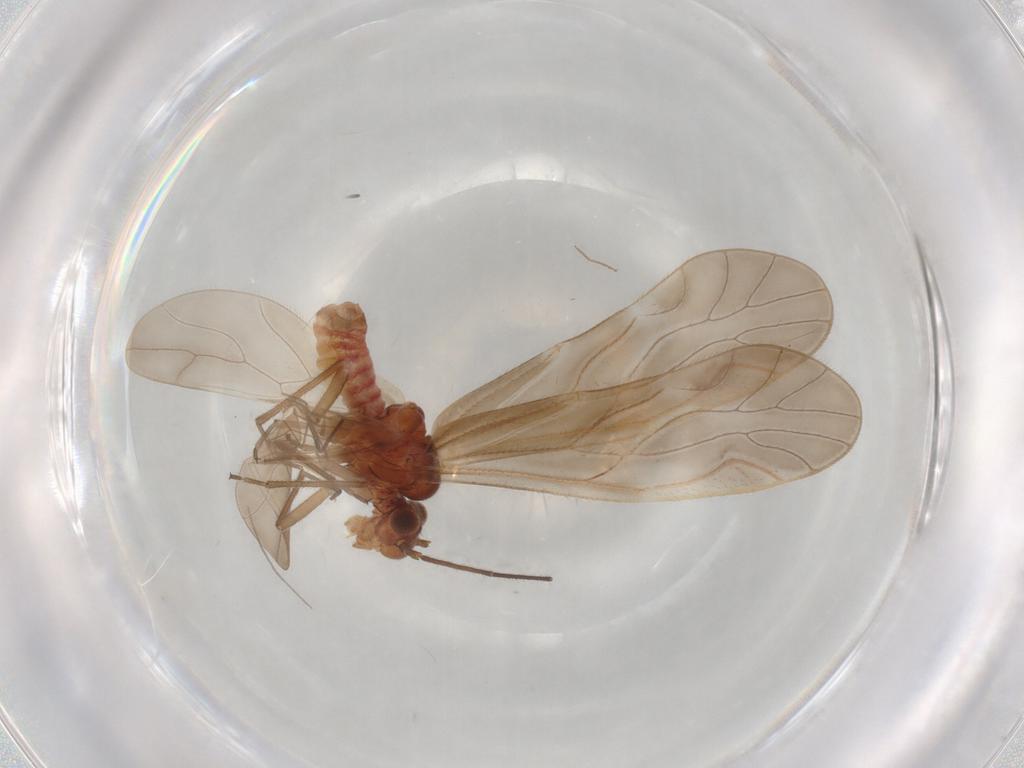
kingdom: Animalia
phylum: Arthropoda
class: Insecta
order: Psocodea
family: Caeciliusidae
